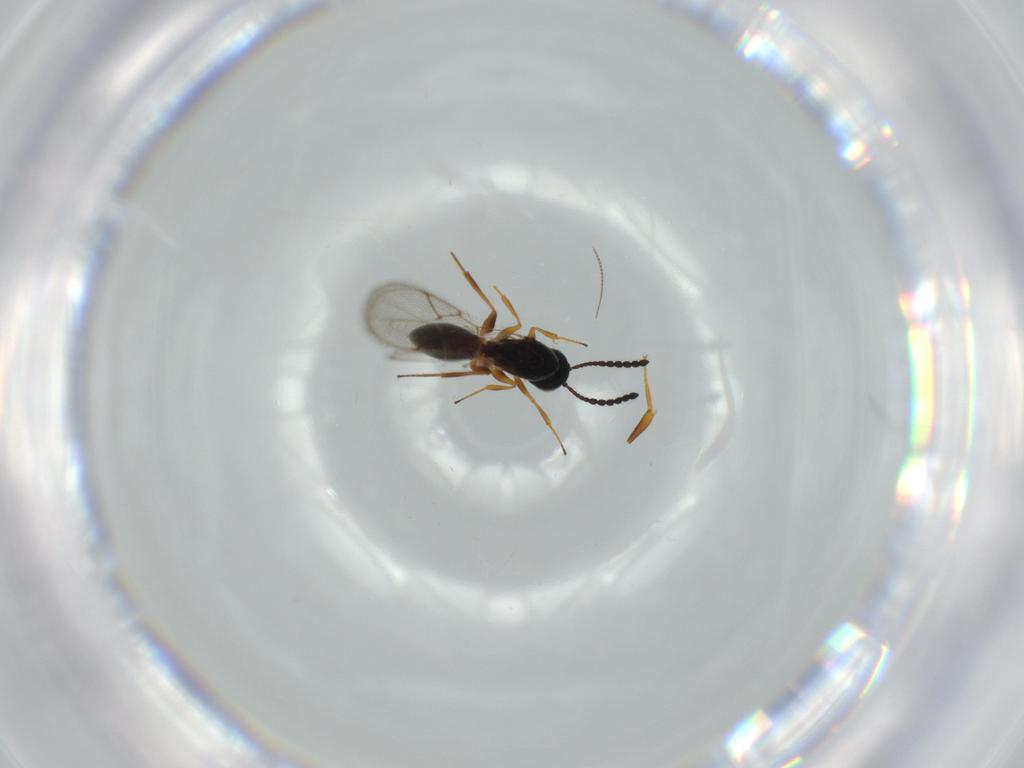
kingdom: Animalia
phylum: Arthropoda
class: Insecta
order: Hymenoptera
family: Figitidae
